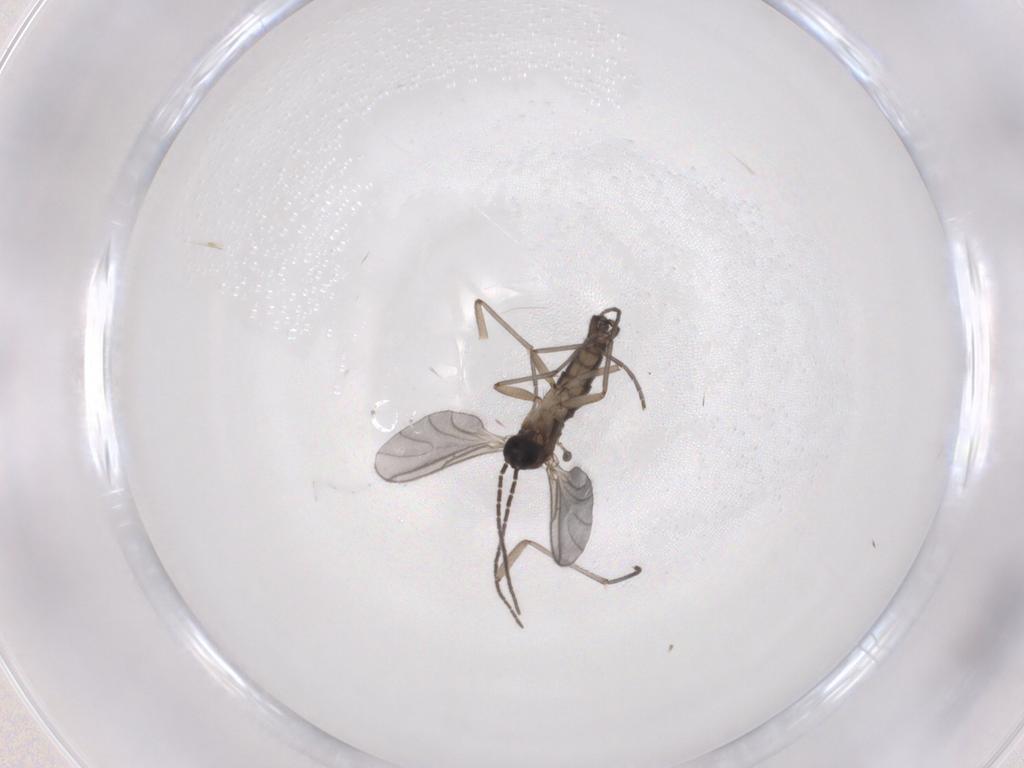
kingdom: Animalia
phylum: Arthropoda
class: Insecta
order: Diptera
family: Sciaridae
